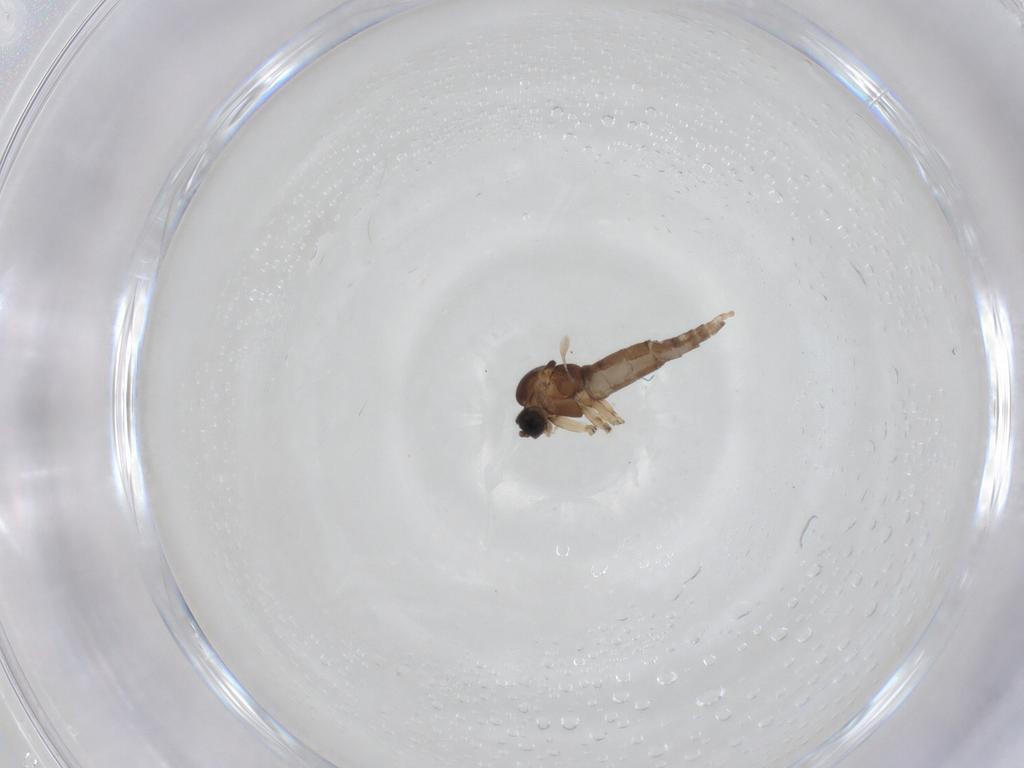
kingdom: Animalia
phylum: Arthropoda
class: Insecta
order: Diptera
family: Sciaridae
